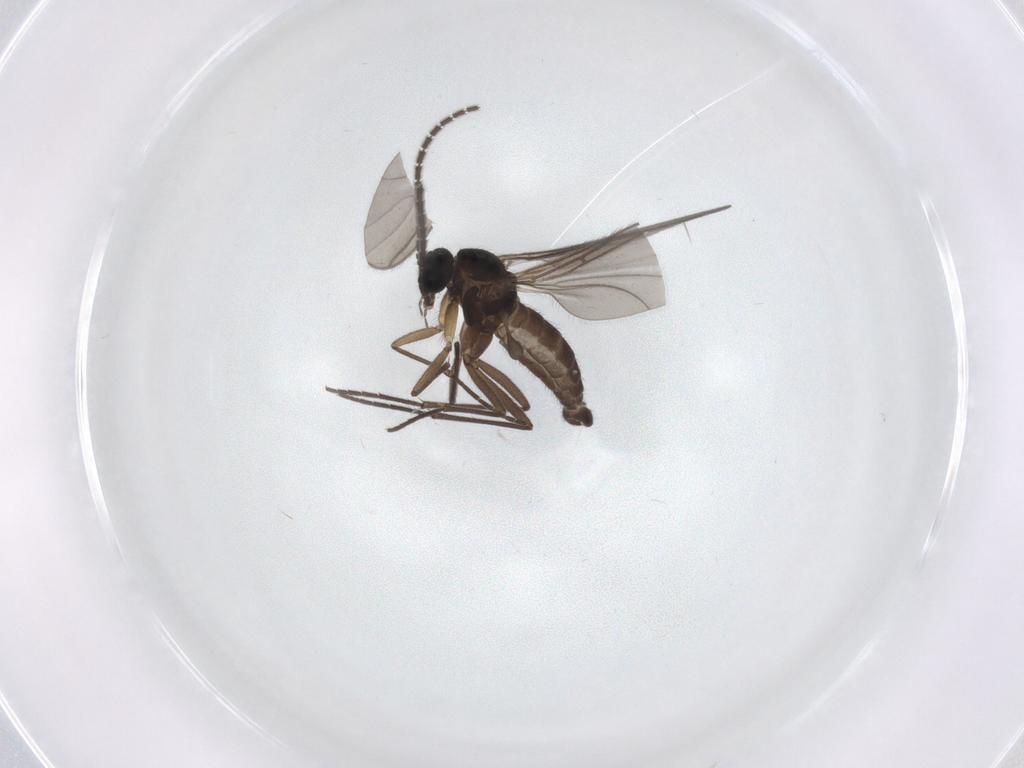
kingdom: Animalia
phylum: Arthropoda
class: Insecta
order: Diptera
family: Sciaridae
